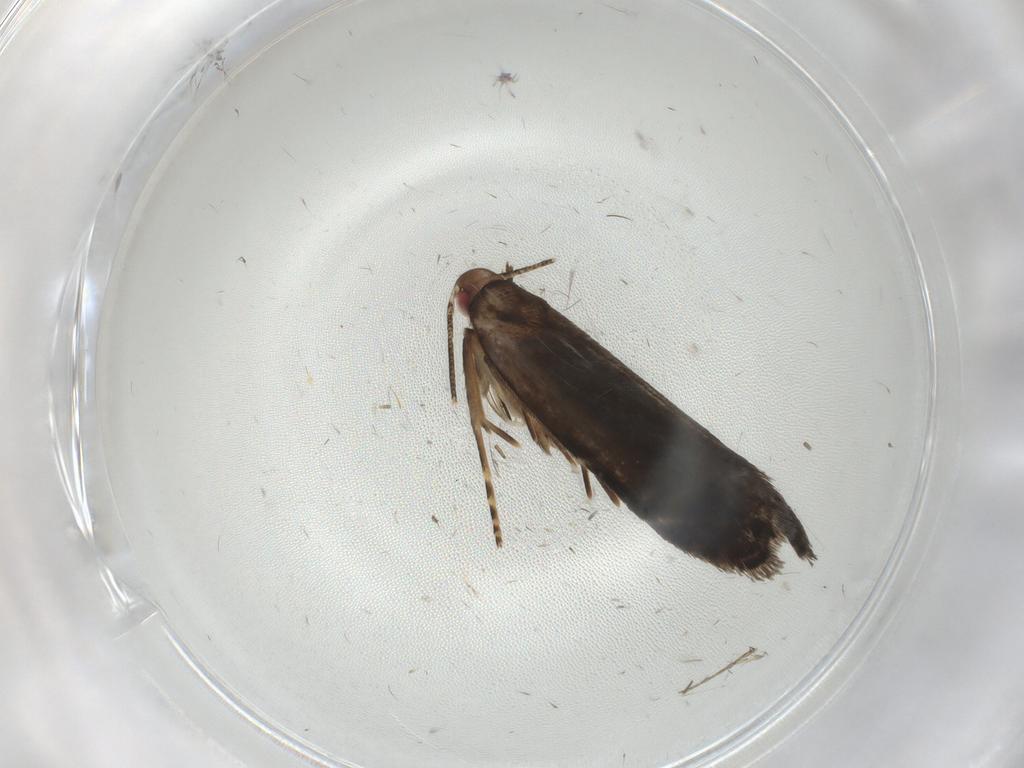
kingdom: Animalia
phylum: Arthropoda
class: Insecta
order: Lepidoptera
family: Gelechiidae
